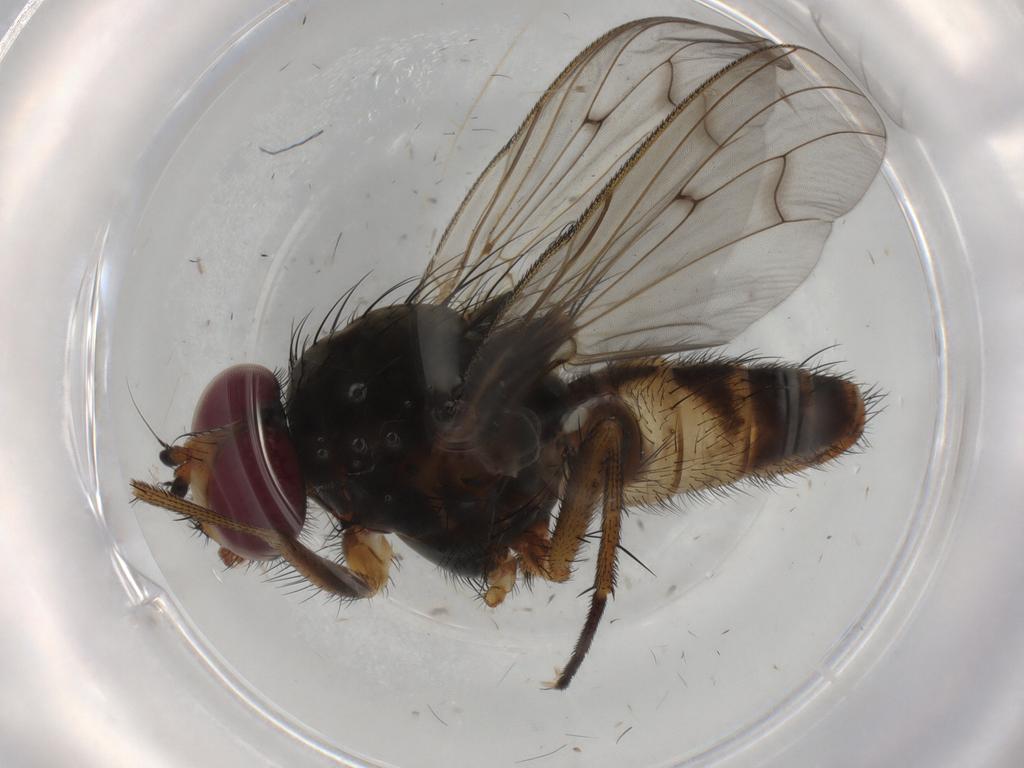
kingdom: Animalia
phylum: Arthropoda
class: Insecta
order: Diptera
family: Anthomyiidae
